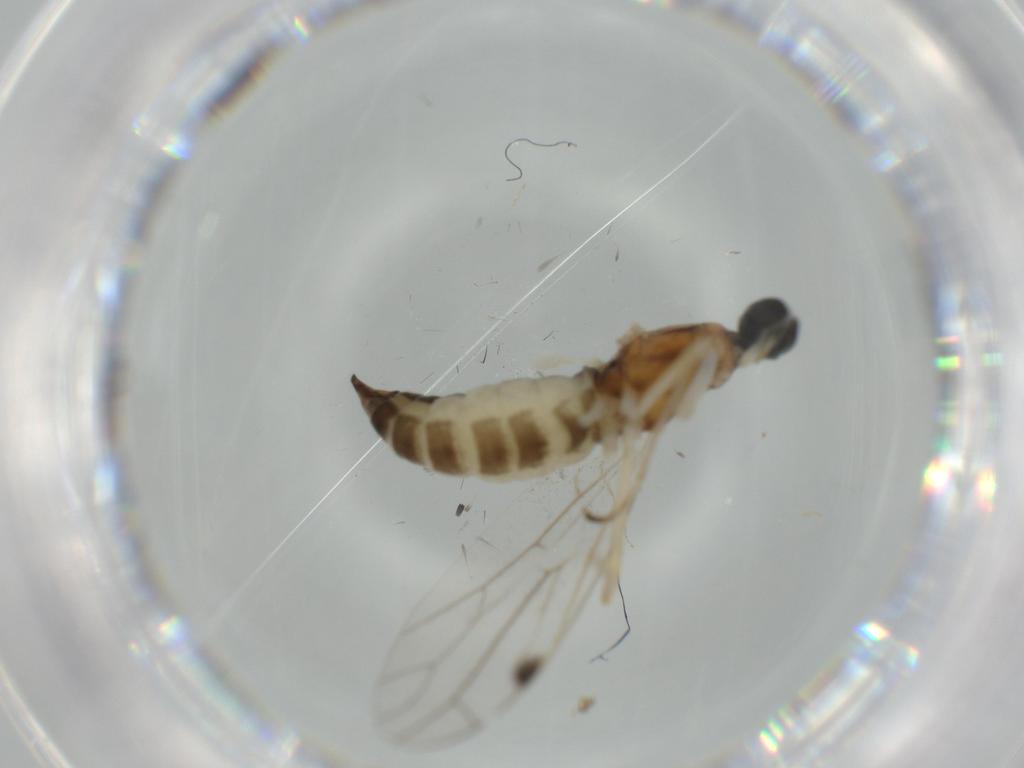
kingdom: Animalia
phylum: Arthropoda
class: Insecta
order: Diptera
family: Empididae
